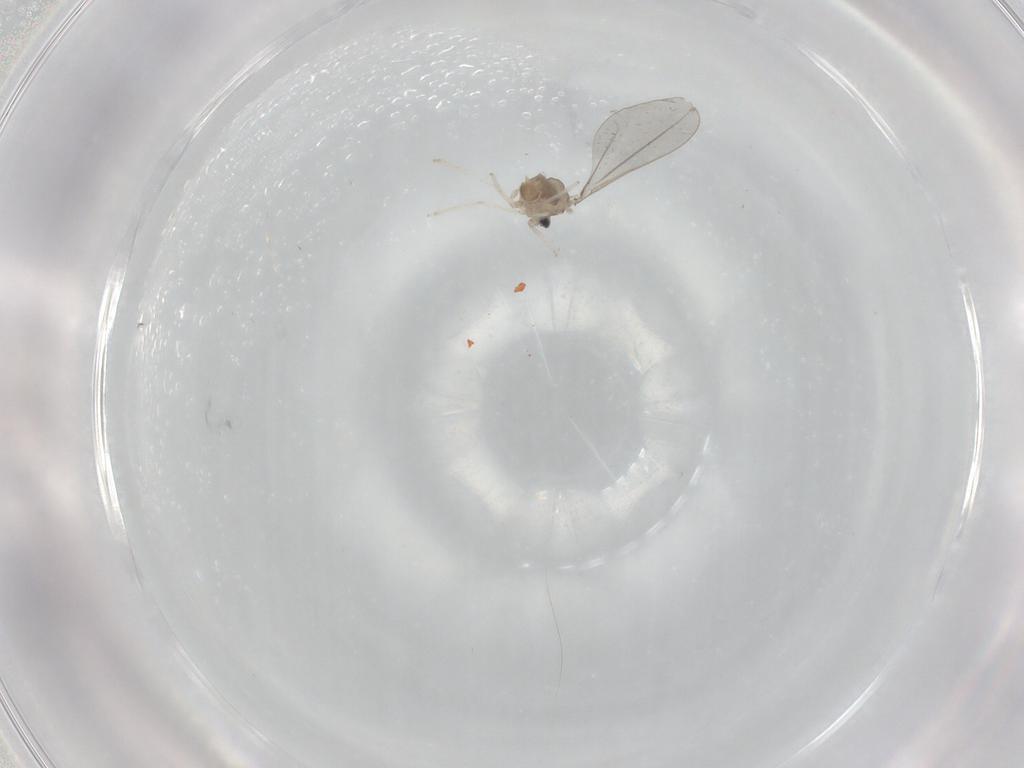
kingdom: Animalia
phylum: Arthropoda
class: Insecta
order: Diptera
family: Cecidomyiidae
